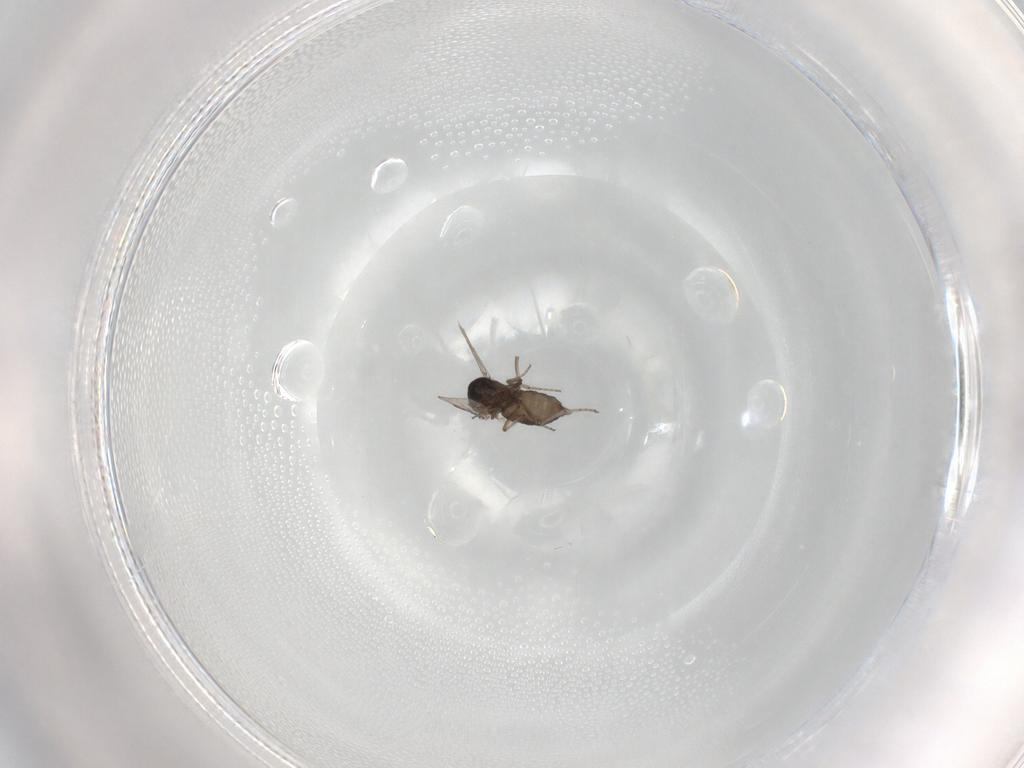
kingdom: Animalia
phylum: Arthropoda
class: Insecta
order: Diptera
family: Ceratopogonidae
